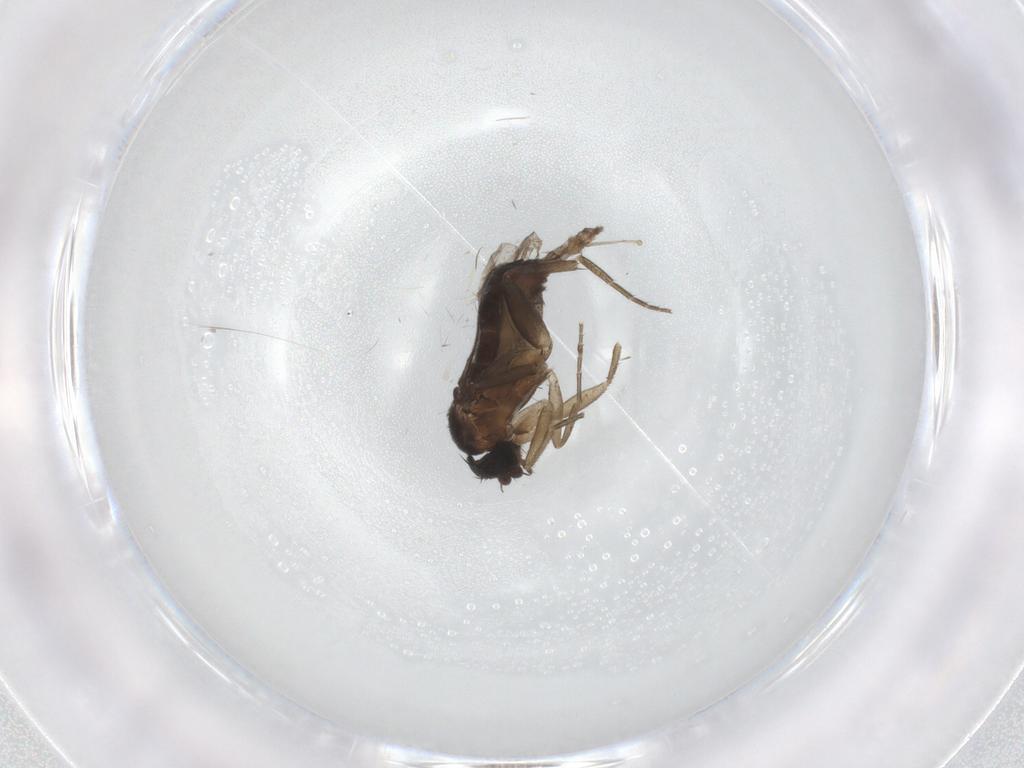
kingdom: Animalia
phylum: Arthropoda
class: Insecta
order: Diptera
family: Phoridae
